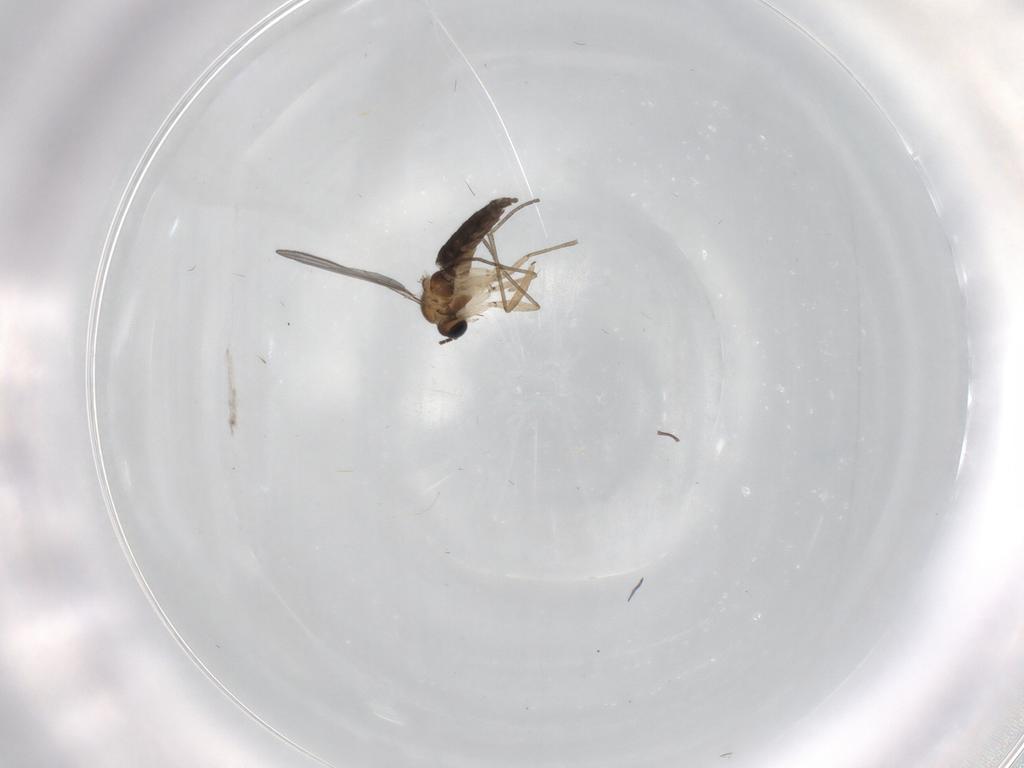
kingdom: Animalia
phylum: Arthropoda
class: Insecta
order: Diptera
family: Sciaridae
